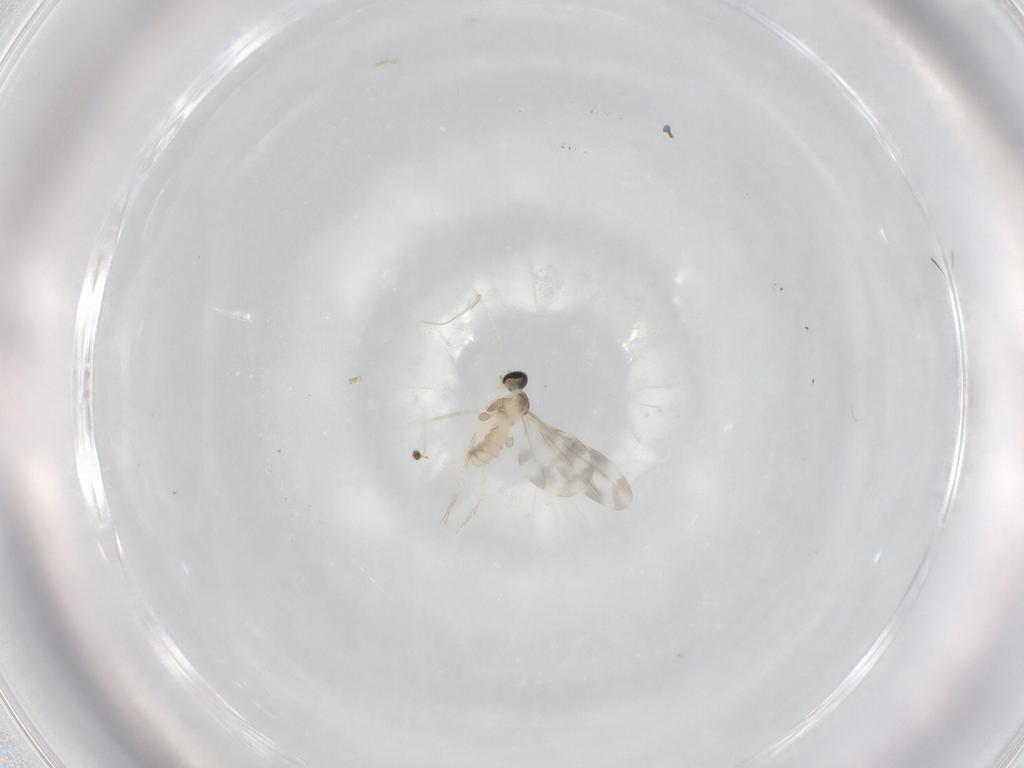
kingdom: Animalia
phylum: Arthropoda
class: Insecta
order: Diptera
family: Cecidomyiidae
